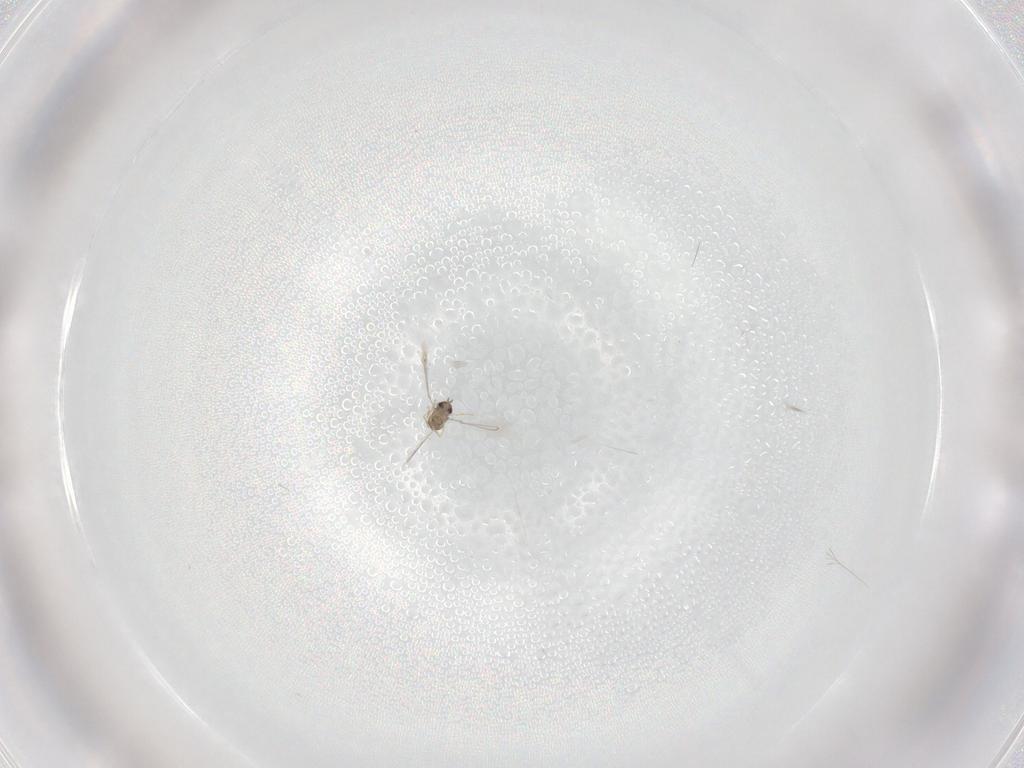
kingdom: Animalia
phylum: Arthropoda
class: Insecta
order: Hymenoptera
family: Mymaridae
